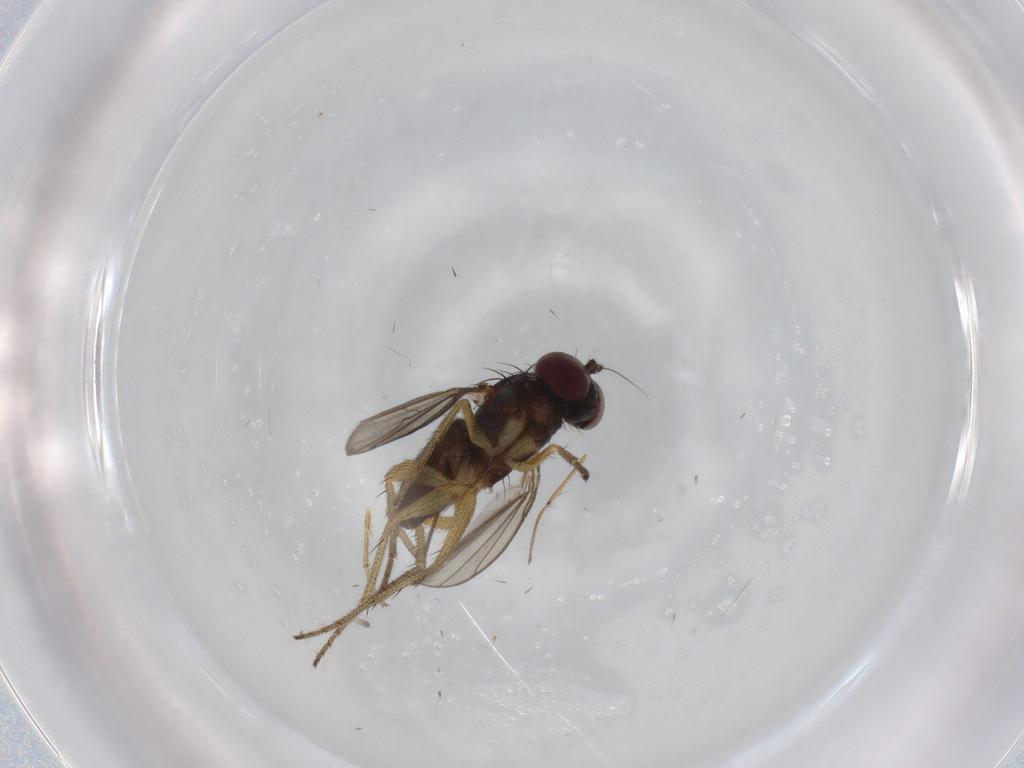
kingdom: Animalia
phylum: Arthropoda
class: Insecta
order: Diptera
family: Dolichopodidae
